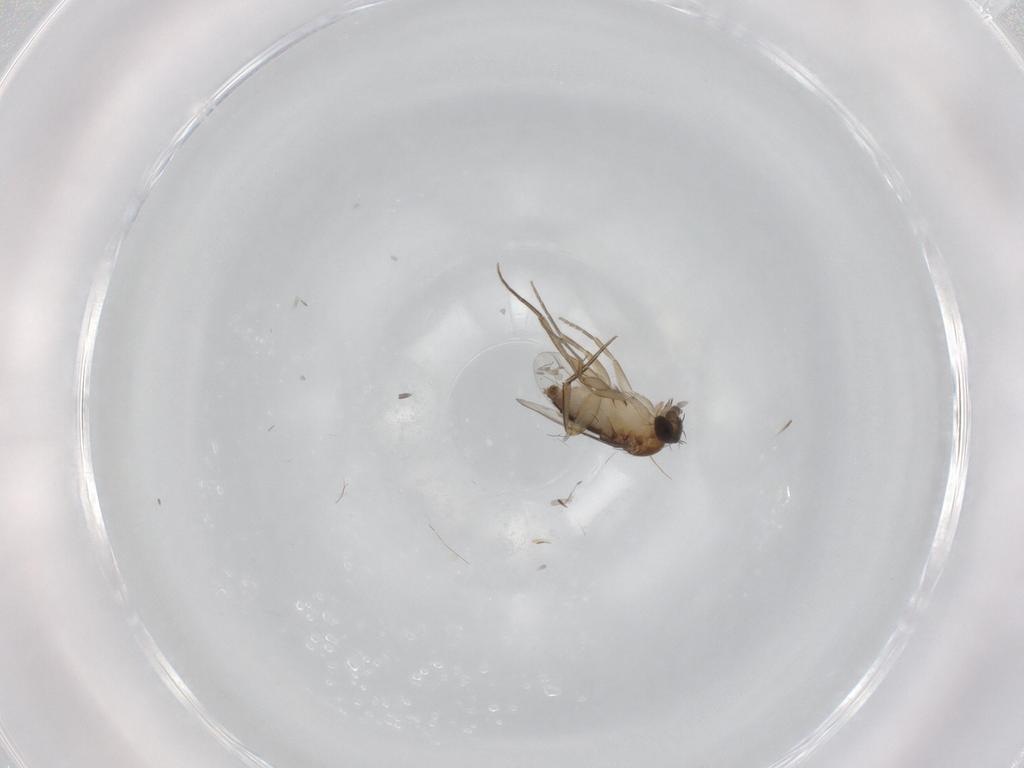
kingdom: Animalia
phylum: Arthropoda
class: Insecta
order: Diptera
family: Phoridae
